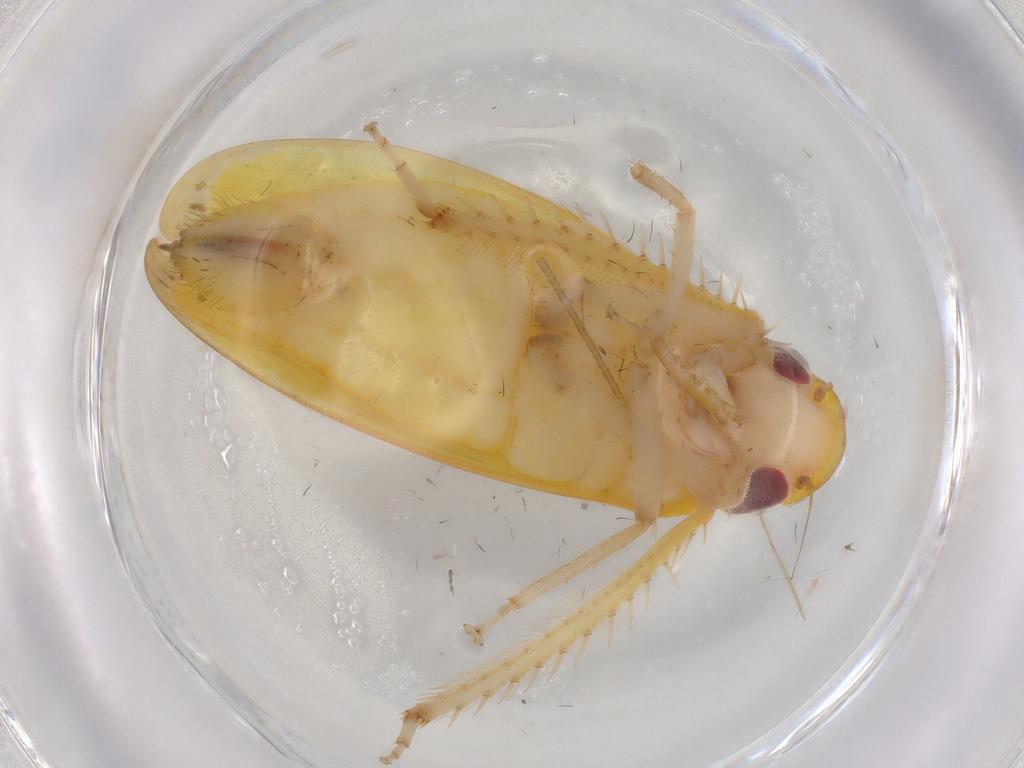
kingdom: Animalia
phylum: Arthropoda
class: Insecta
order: Hemiptera
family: Cicadellidae
